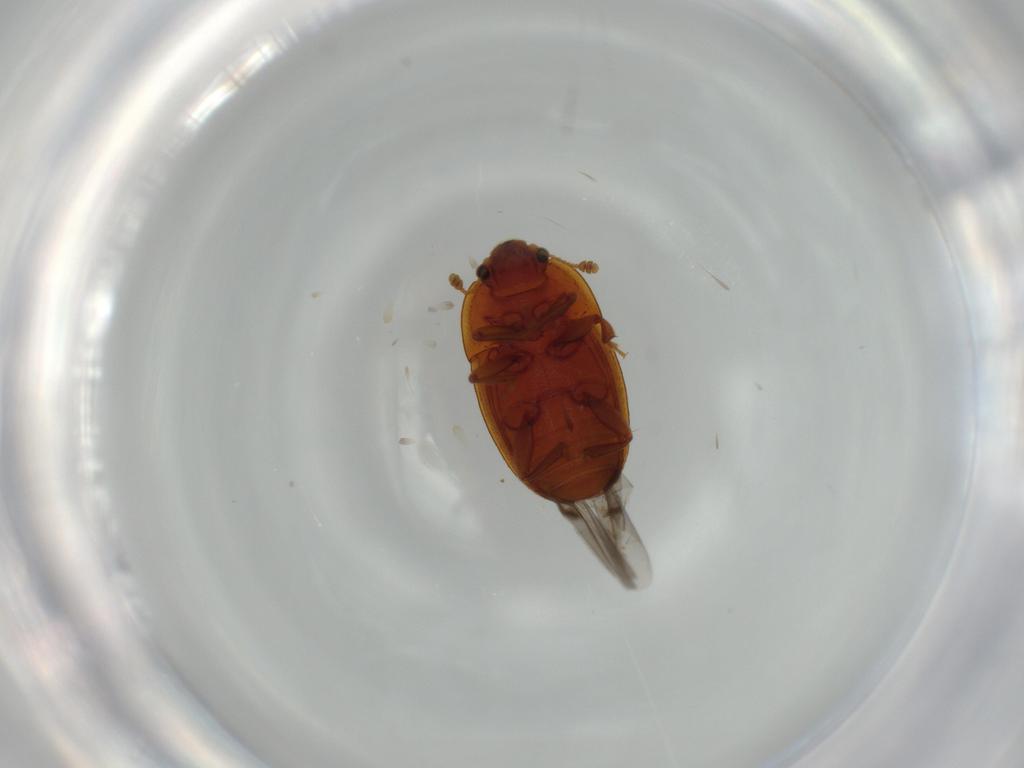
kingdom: Animalia
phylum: Arthropoda
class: Insecta
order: Coleoptera
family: Nitidulidae
